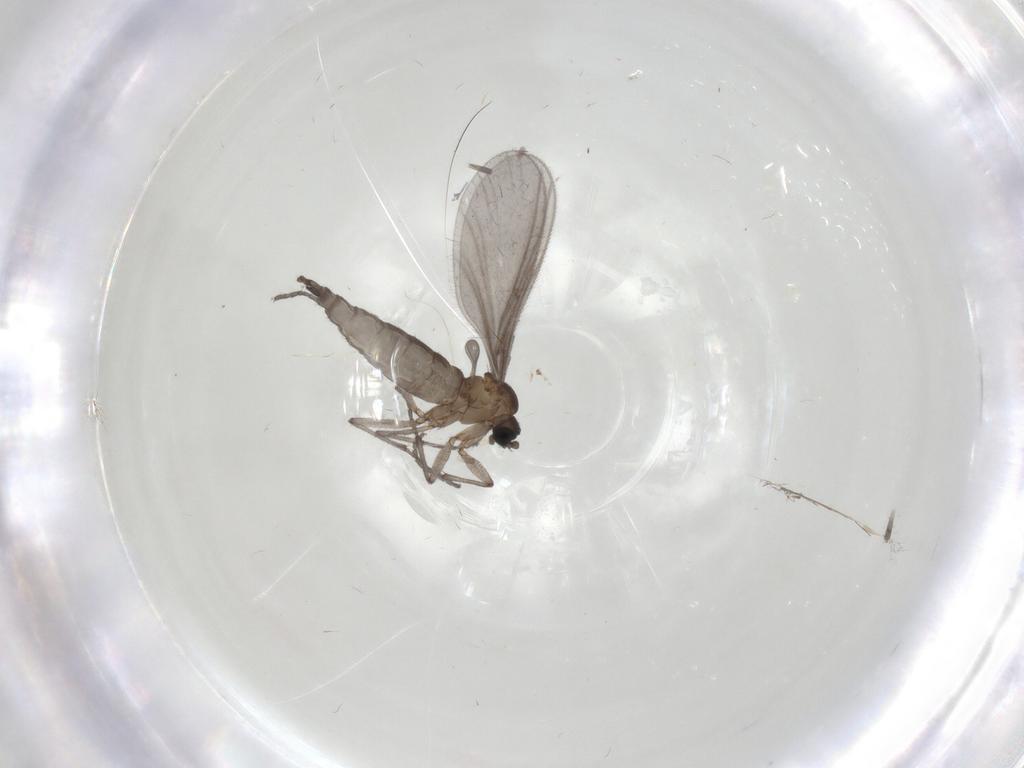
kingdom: Animalia
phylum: Arthropoda
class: Insecta
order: Diptera
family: Sciaridae
